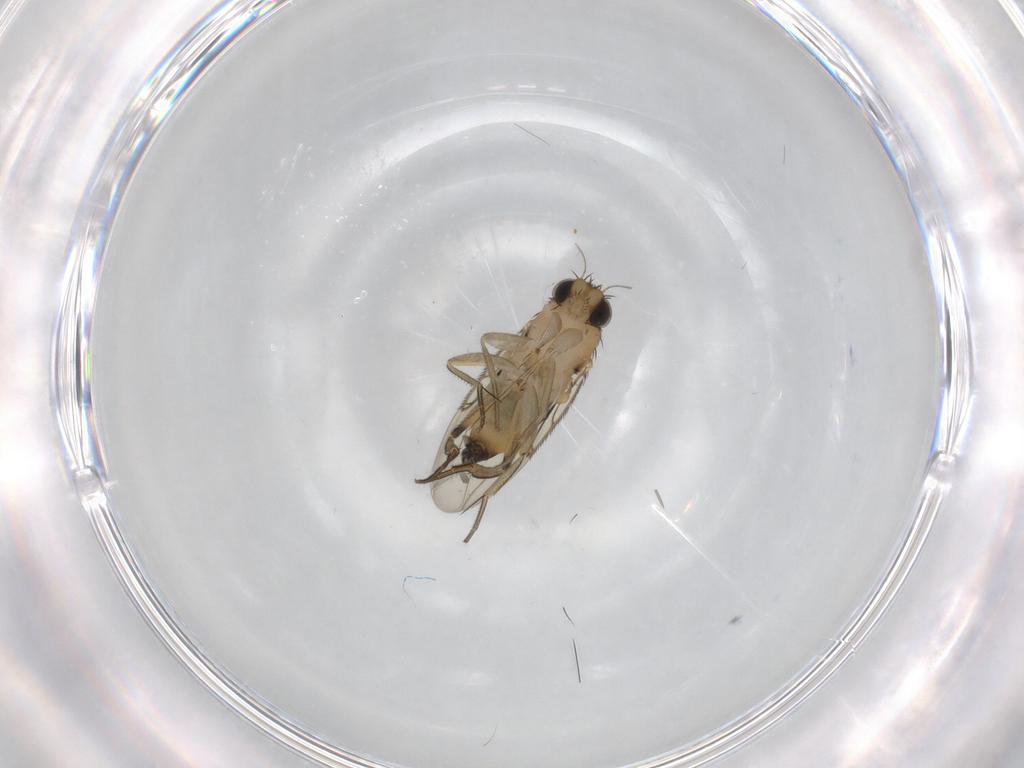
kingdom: Animalia
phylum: Arthropoda
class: Insecta
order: Diptera
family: Phoridae
